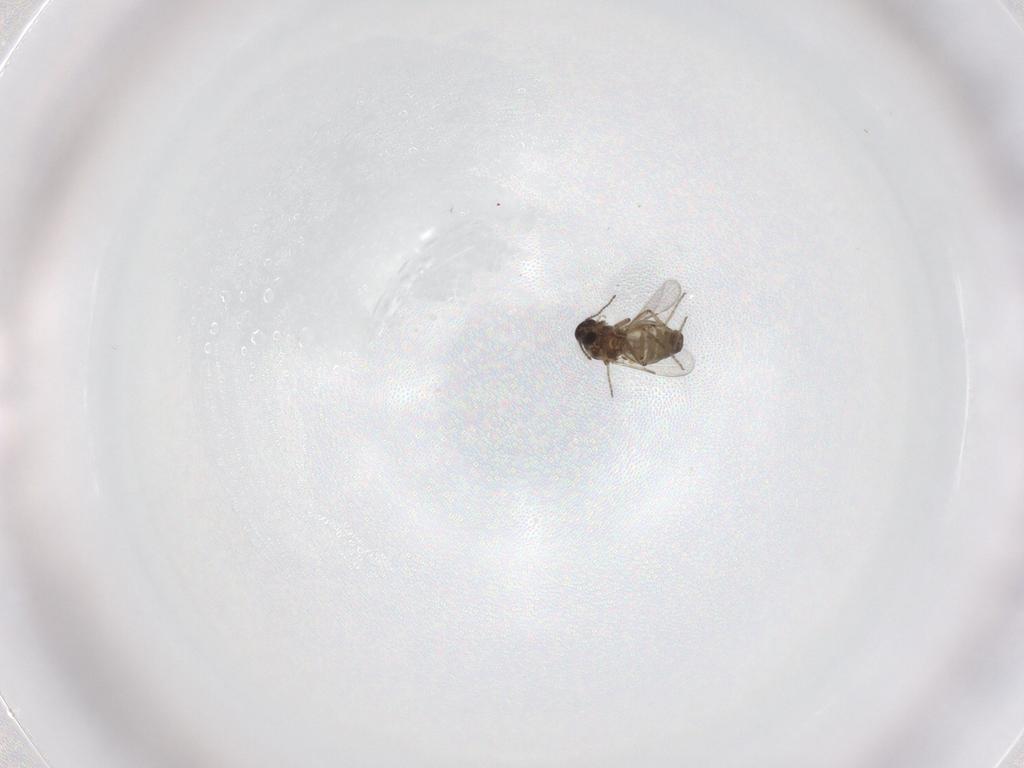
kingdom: Animalia
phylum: Arthropoda
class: Insecta
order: Diptera
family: Ceratopogonidae
